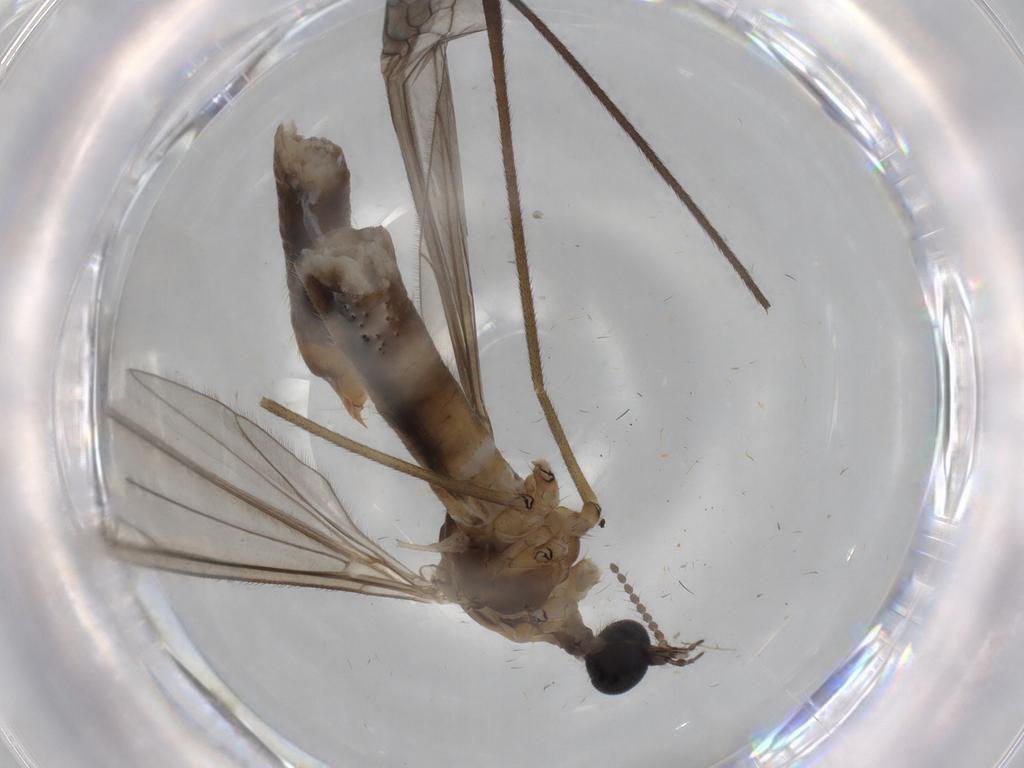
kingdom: Animalia
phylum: Arthropoda
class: Insecta
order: Diptera
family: Limoniidae
